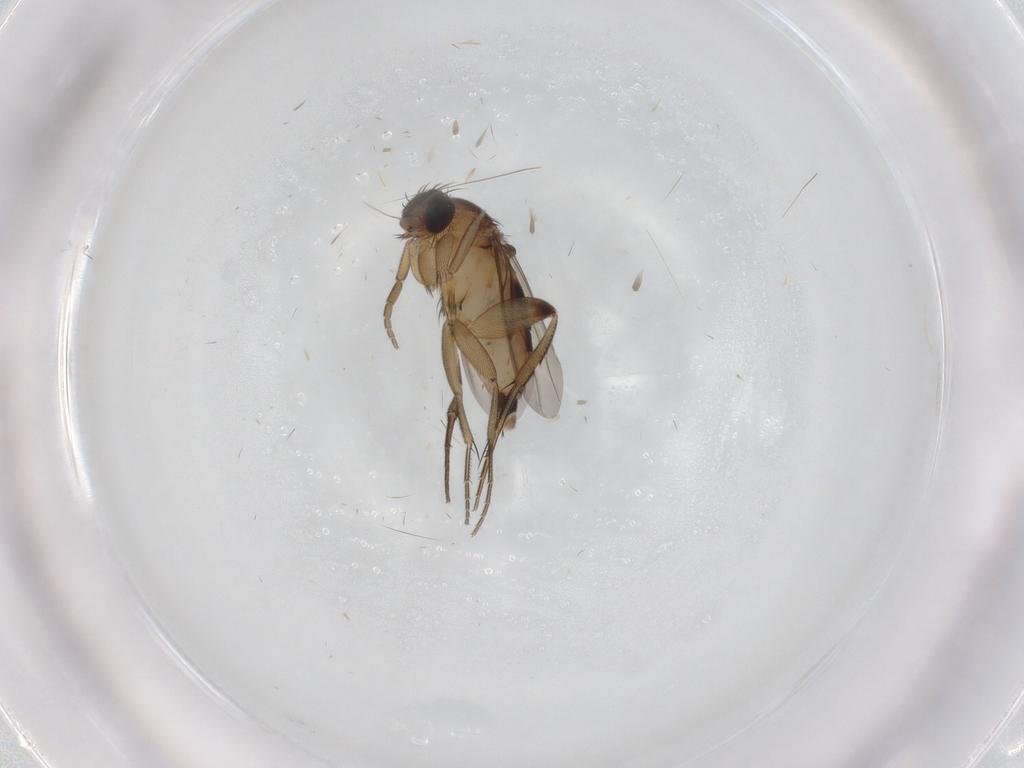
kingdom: Animalia
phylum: Arthropoda
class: Insecta
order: Diptera
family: Phoridae
